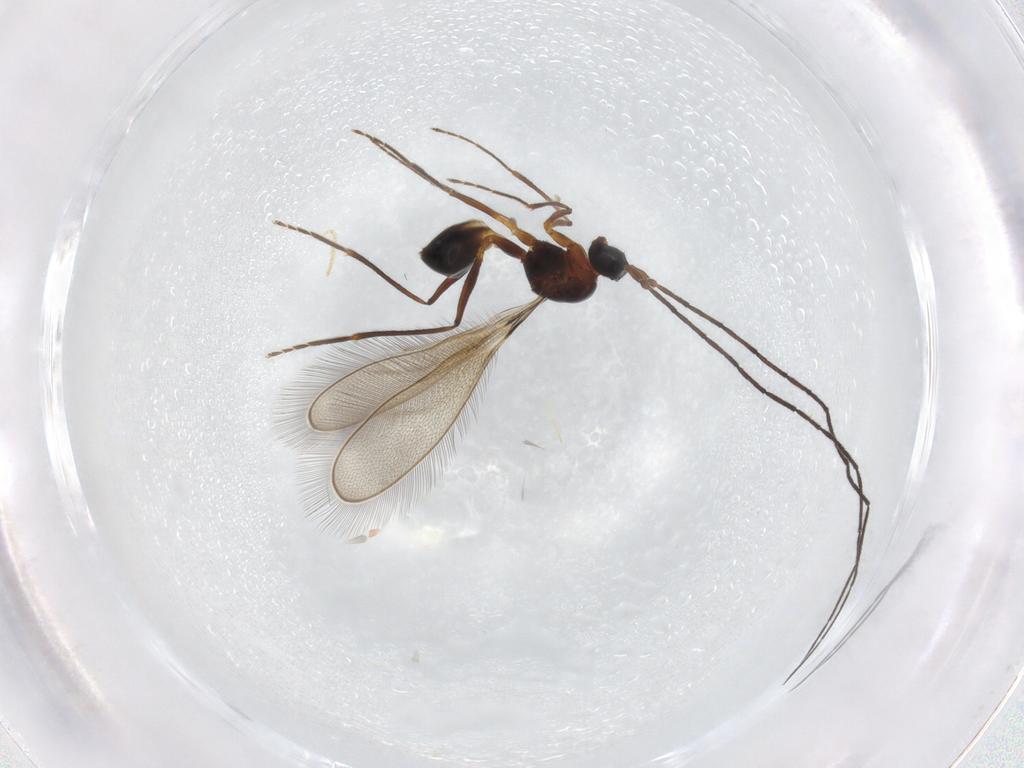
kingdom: Animalia
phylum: Arthropoda
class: Insecta
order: Hymenoptera
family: Mymaridae
